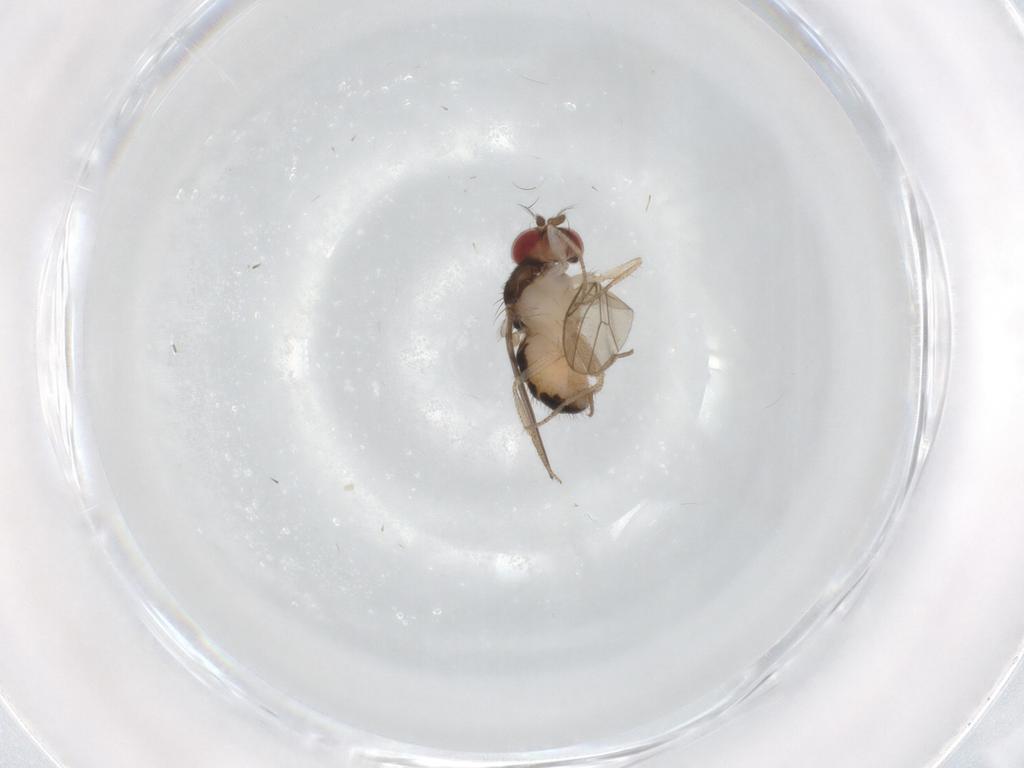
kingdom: Animalia
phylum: Arthropoda
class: Insecta
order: Diptera
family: Drosophilidae
